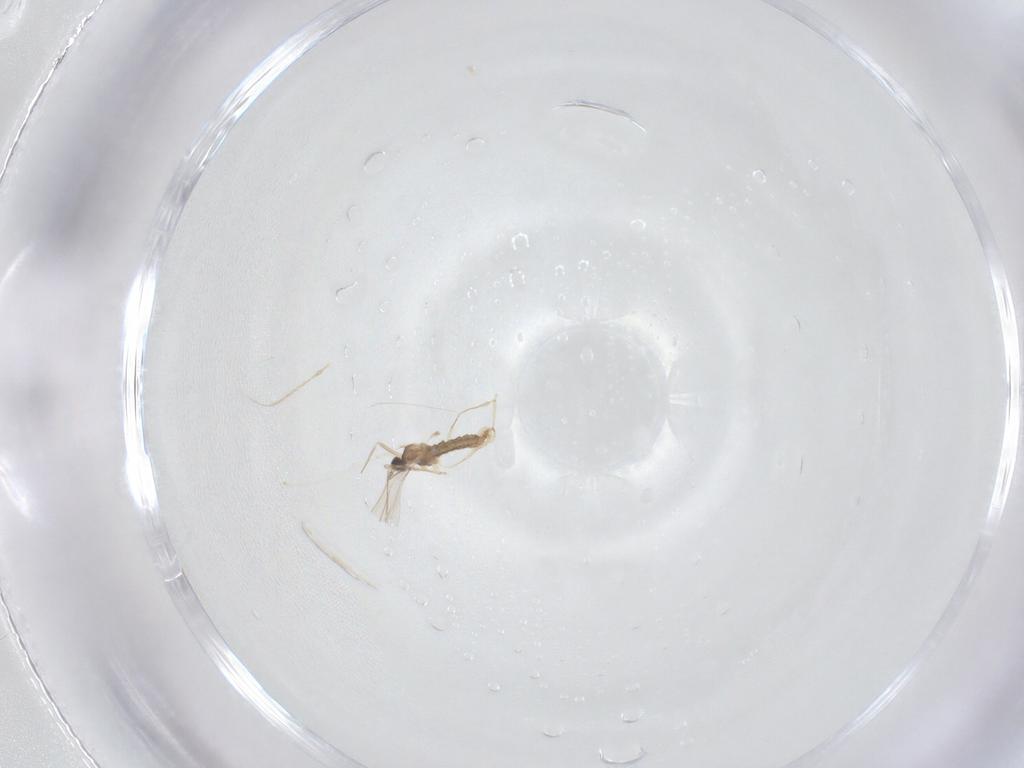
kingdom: Animalia
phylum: Arthropoda
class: Insecta
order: Diptera
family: Cecidomyiidae
